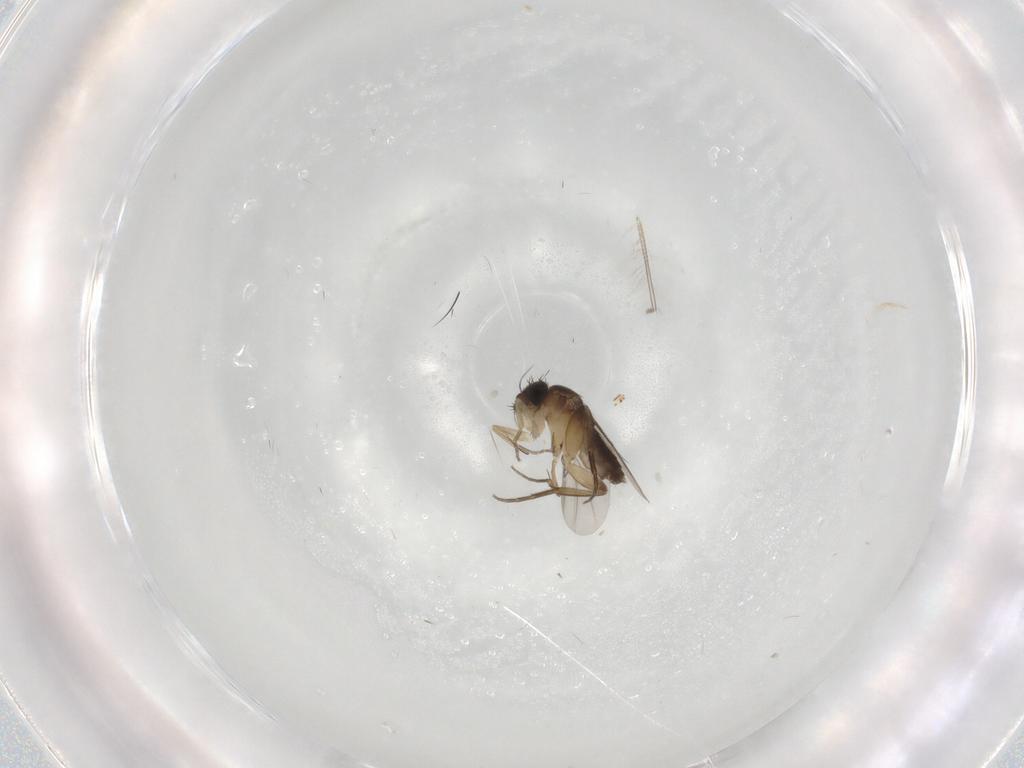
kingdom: Animalia
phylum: Arthropoda
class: Insecta
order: Diptera
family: Phoridae
